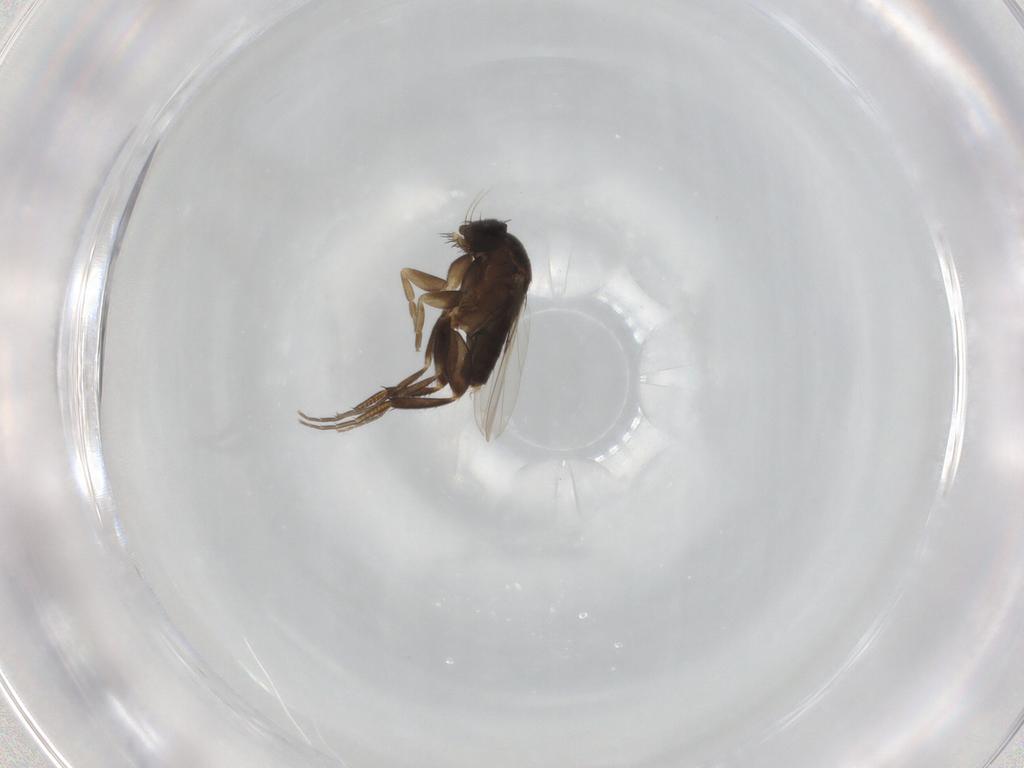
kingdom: Animalia
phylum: Arthropoda
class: Insecta
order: Diptera
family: Phoridae
